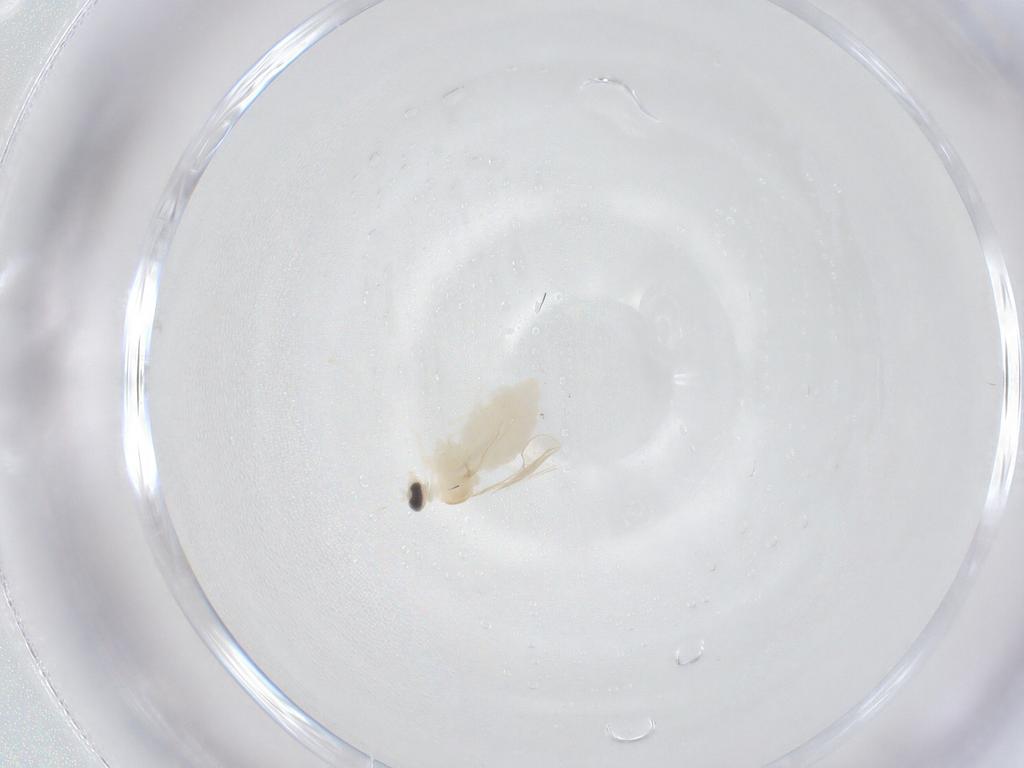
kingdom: Animalia
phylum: Arthropoda
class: Insecta
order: Diptera
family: Cecidomyiidae
